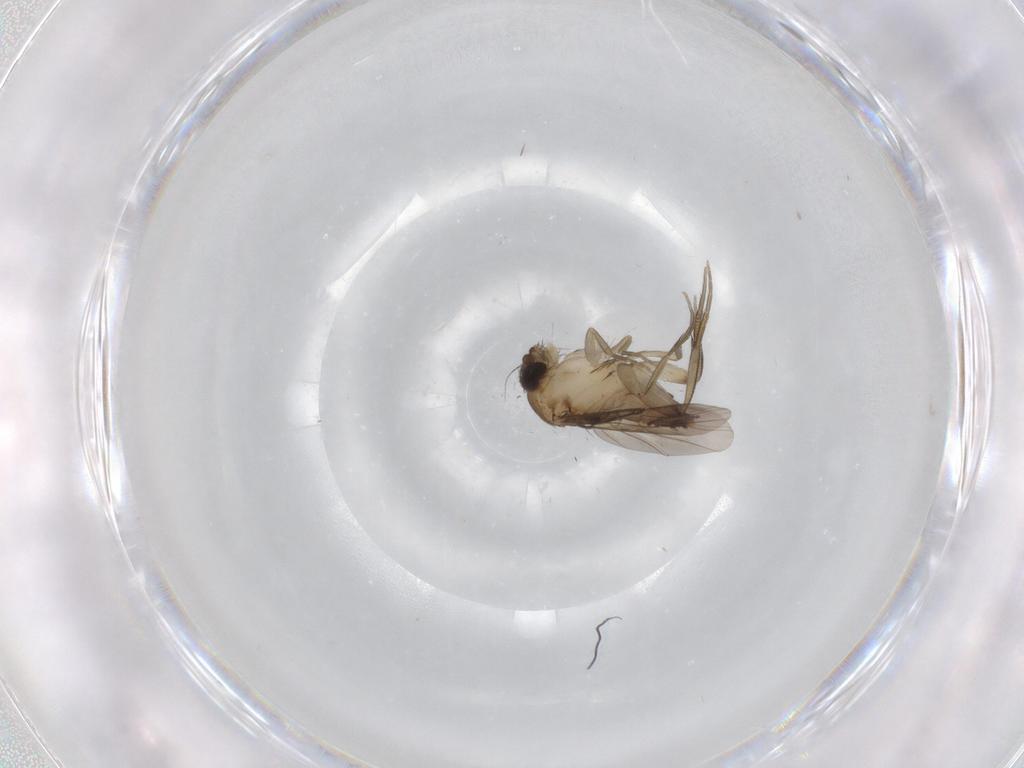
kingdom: Animalia
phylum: Arthropoda
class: Insecta
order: Diptera
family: Phoridae
